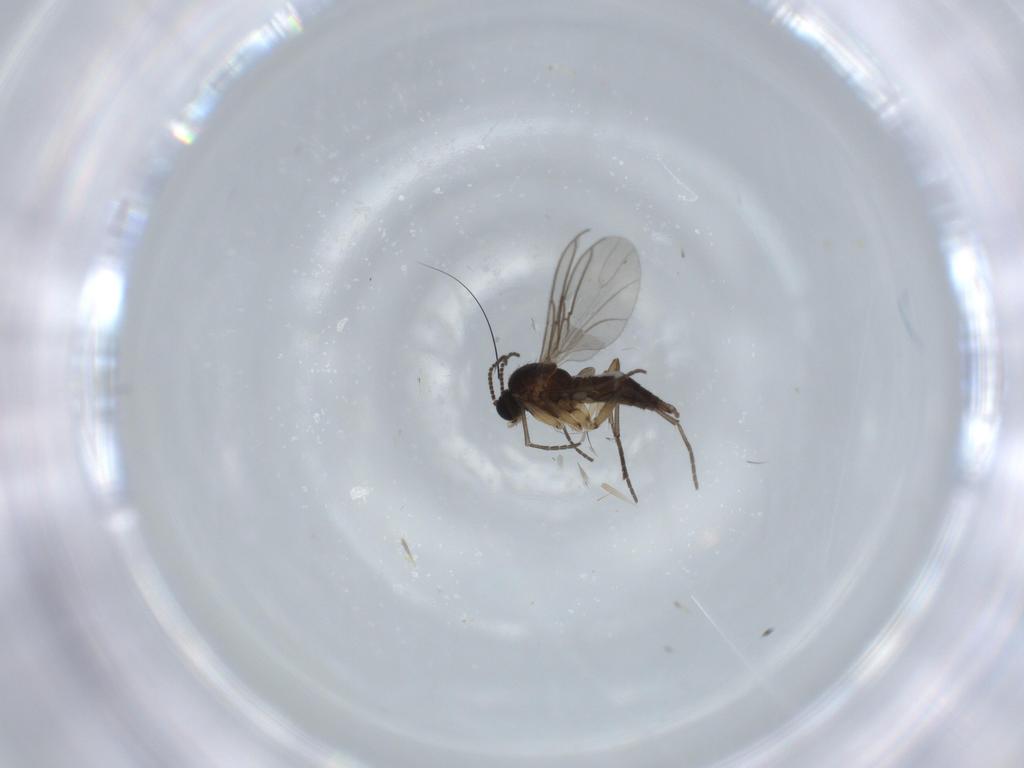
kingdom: Animalia
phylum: Arthropoda
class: Insecta
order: Diptera
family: Sciaridae
